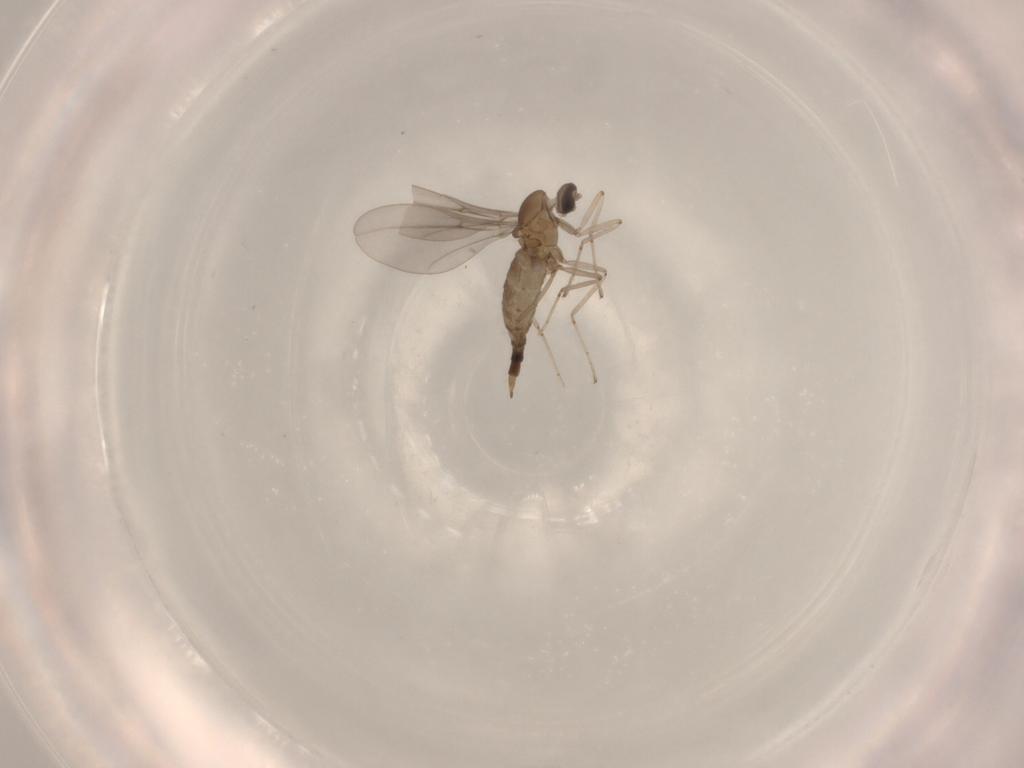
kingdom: Animalia
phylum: Arthropoda
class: Insecta
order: Diptera
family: Cecidomyiidae
